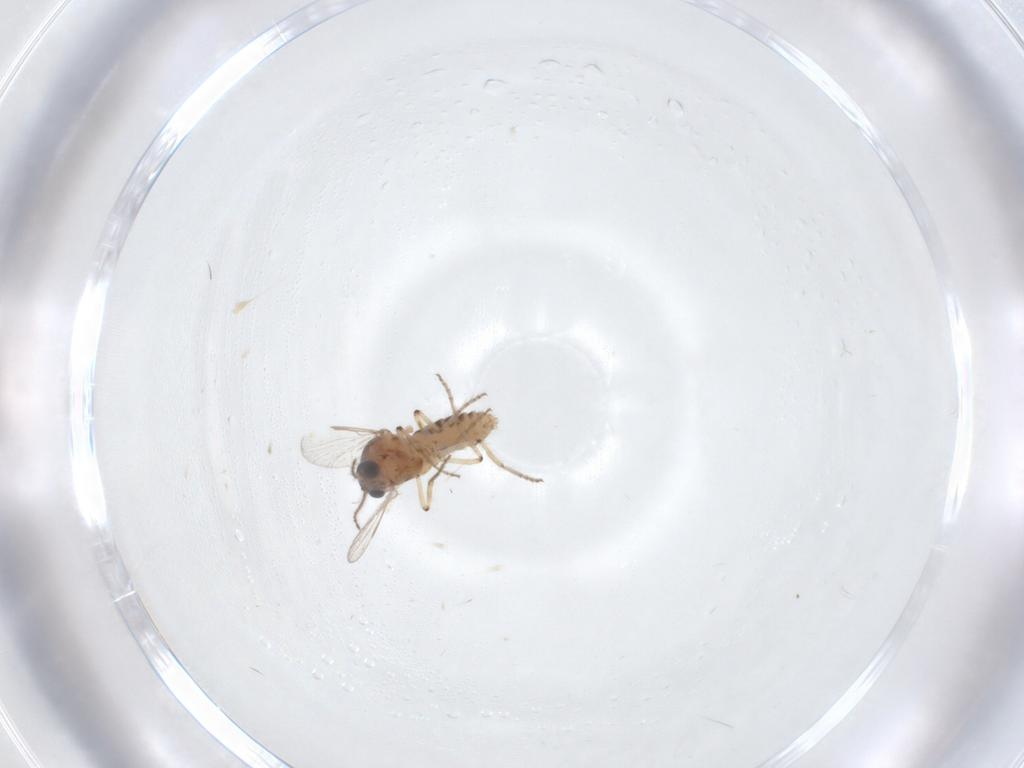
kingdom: Animalia
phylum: Arthropoda
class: Insecta
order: Diptera
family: Ceratopogonidae
